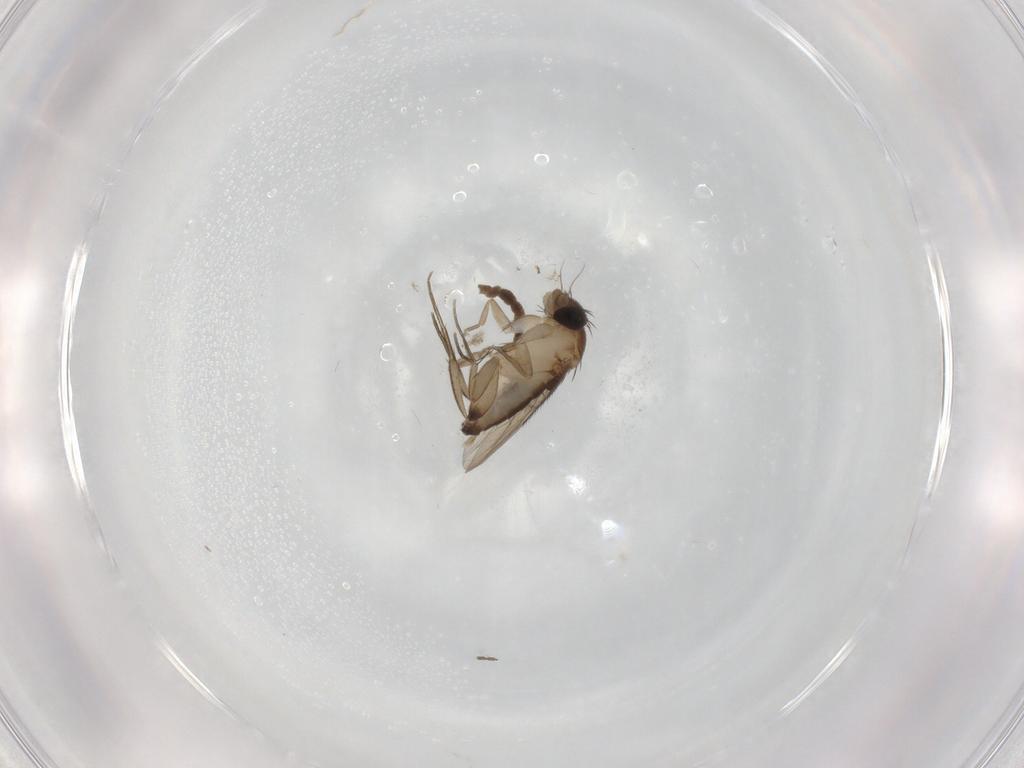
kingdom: Animalia
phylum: Arthropoda
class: Insecta
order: Diptera
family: Phoridae
